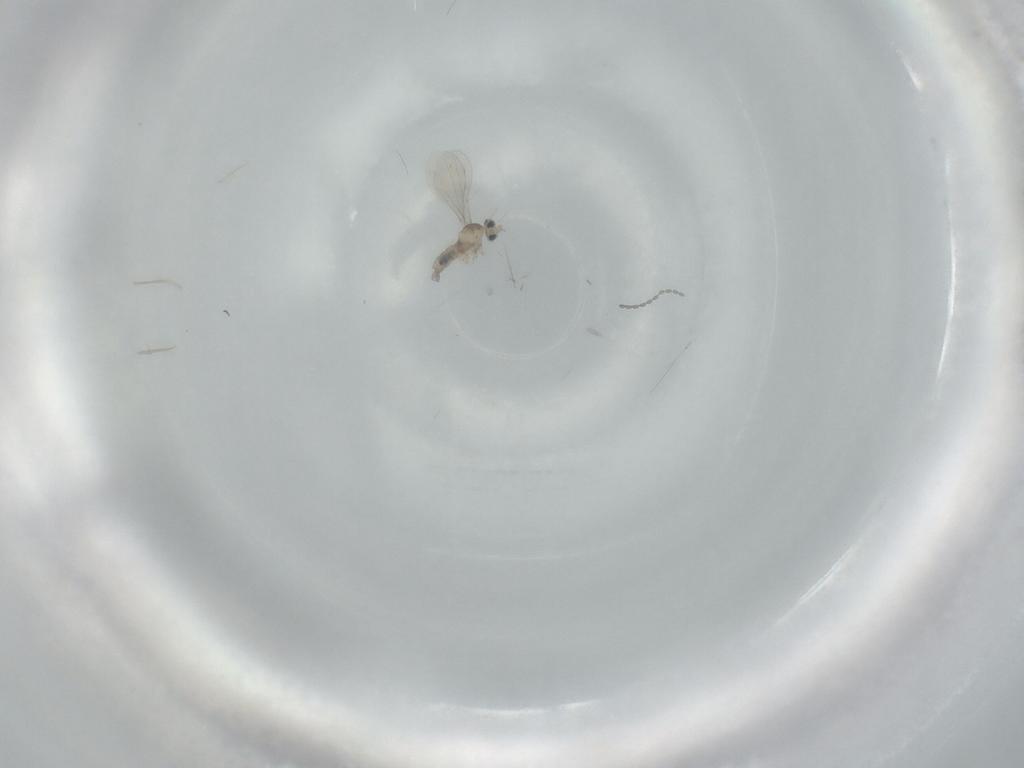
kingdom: Animalia
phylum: Arthropoda
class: Insecta
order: Diptera
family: Cecidomyiidae
